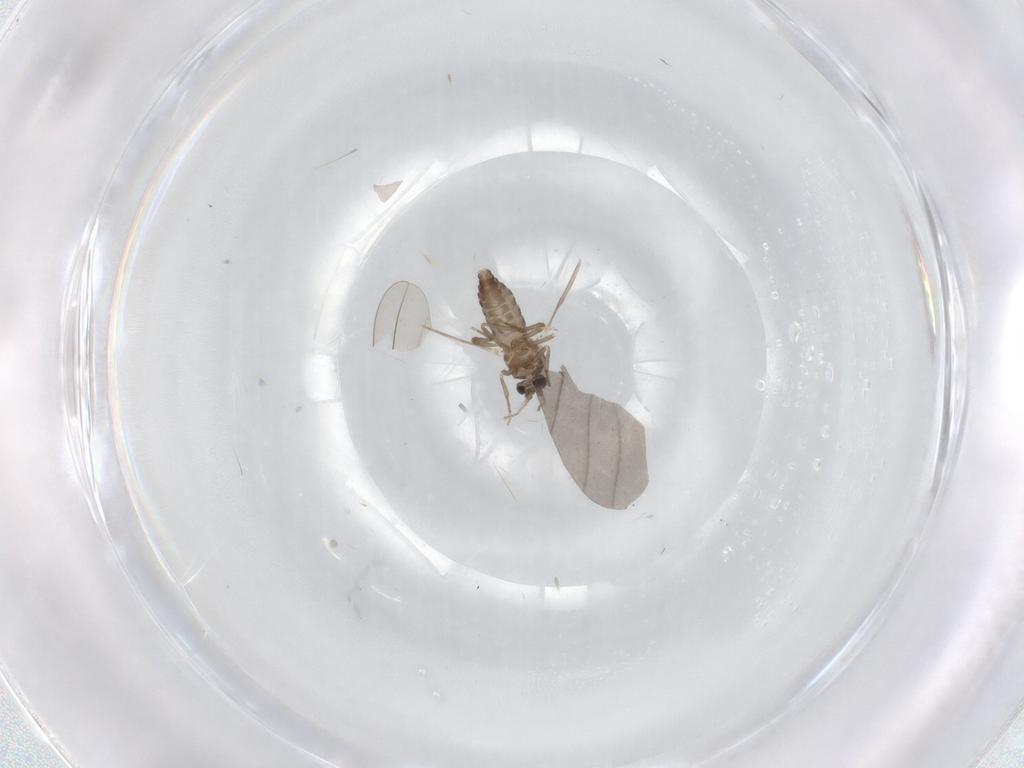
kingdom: Animalia
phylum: Arthropoda
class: Insecta
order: Diptera
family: Ceratopogonidae
